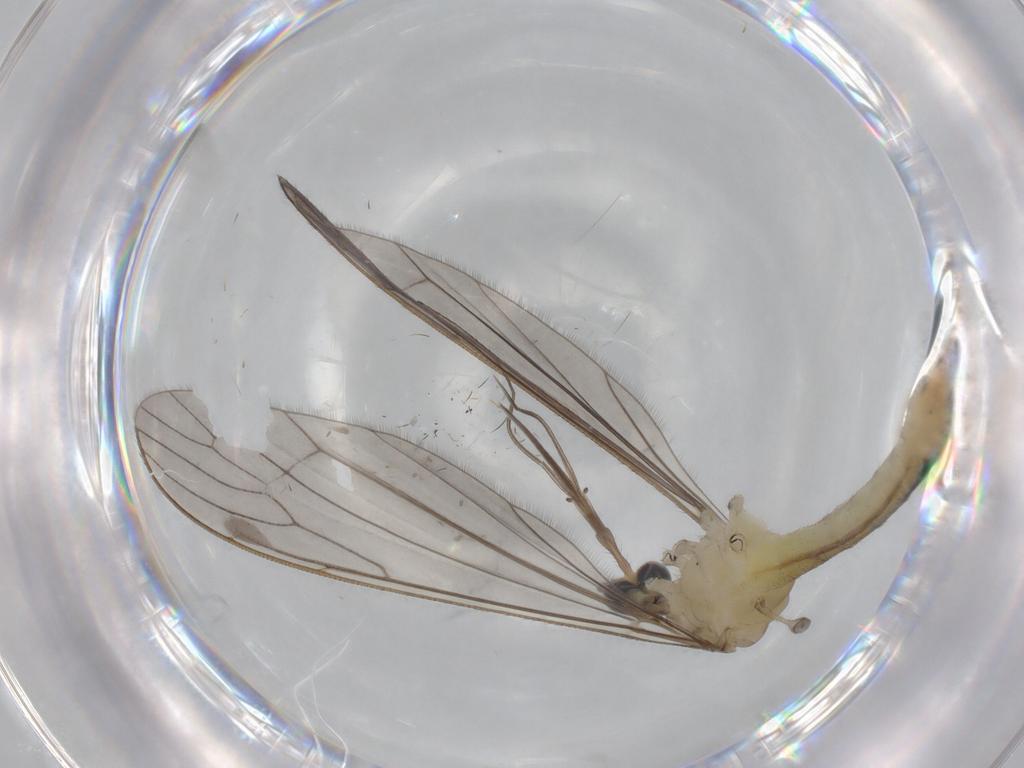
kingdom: Animalia
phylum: Arthropoda
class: Insecta
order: Diptera
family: Limoniidae
